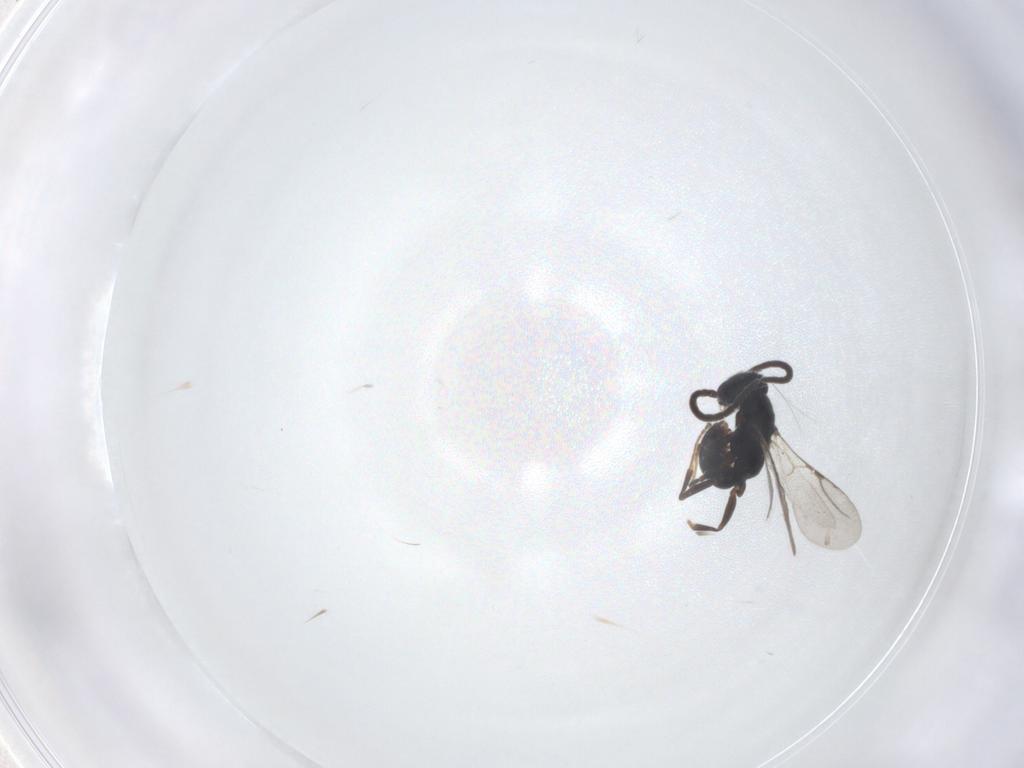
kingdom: Animalia
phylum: Arthropoda
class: Insecta
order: Hymenoptera
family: Bethylidae
